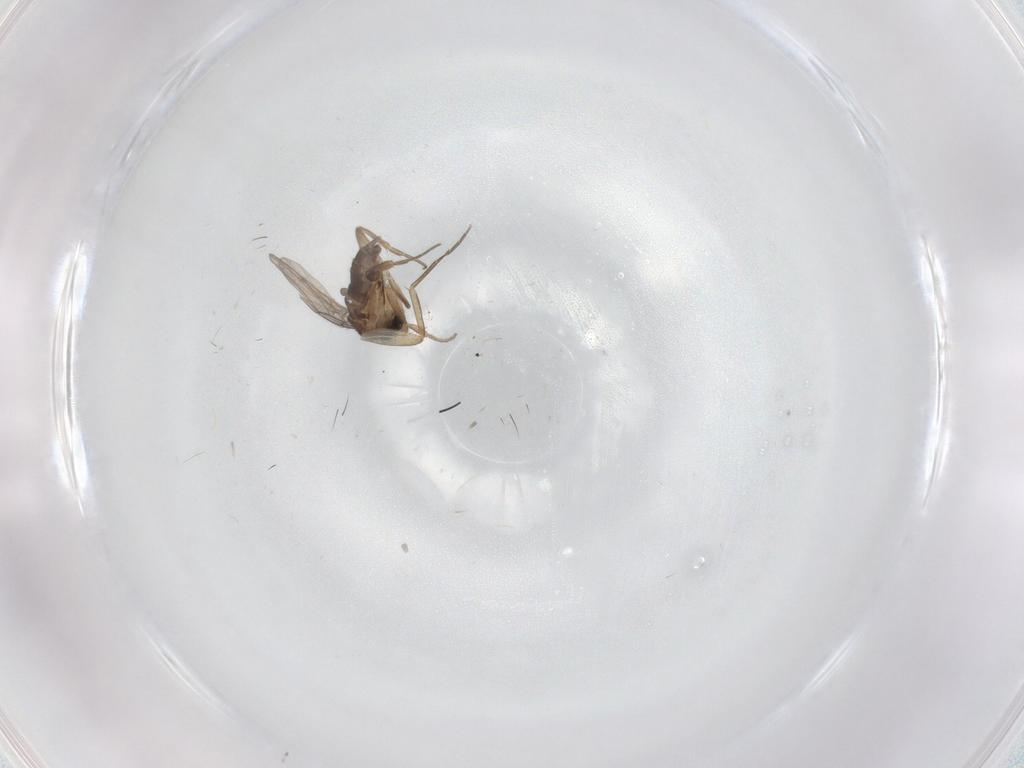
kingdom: Animalia
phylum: Arthropoda
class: Insecta
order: Diptera
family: Phoridae
